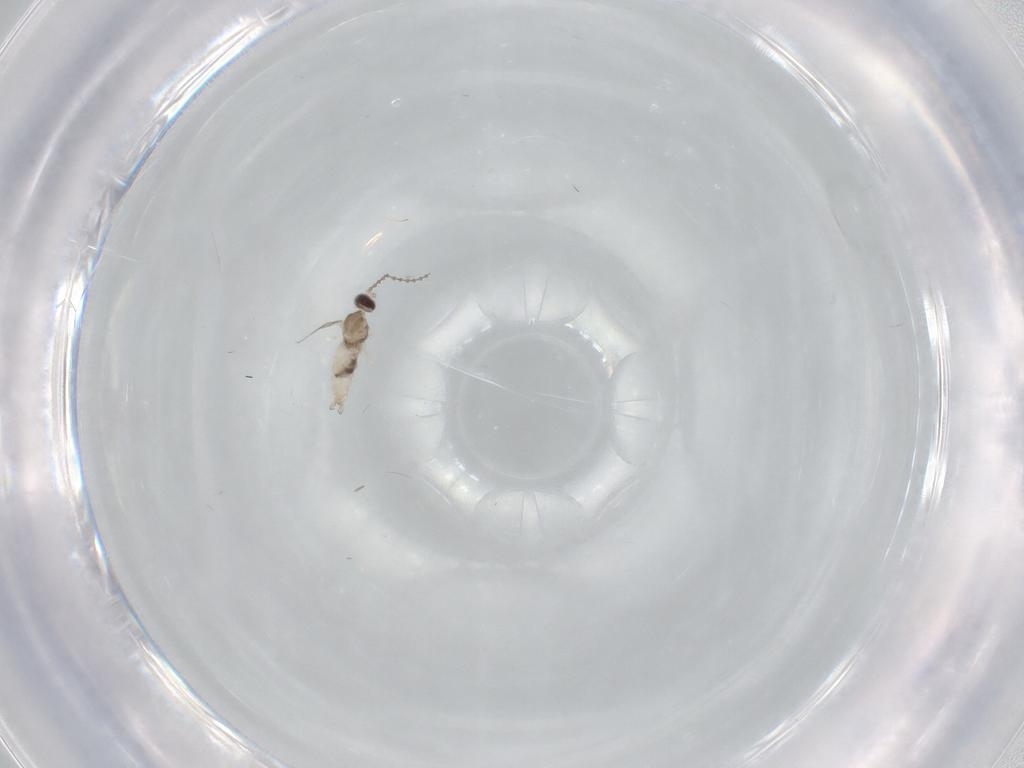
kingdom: Animalia
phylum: Arthropoda
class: Insecta
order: Diptera
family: Cecidomyiidae
